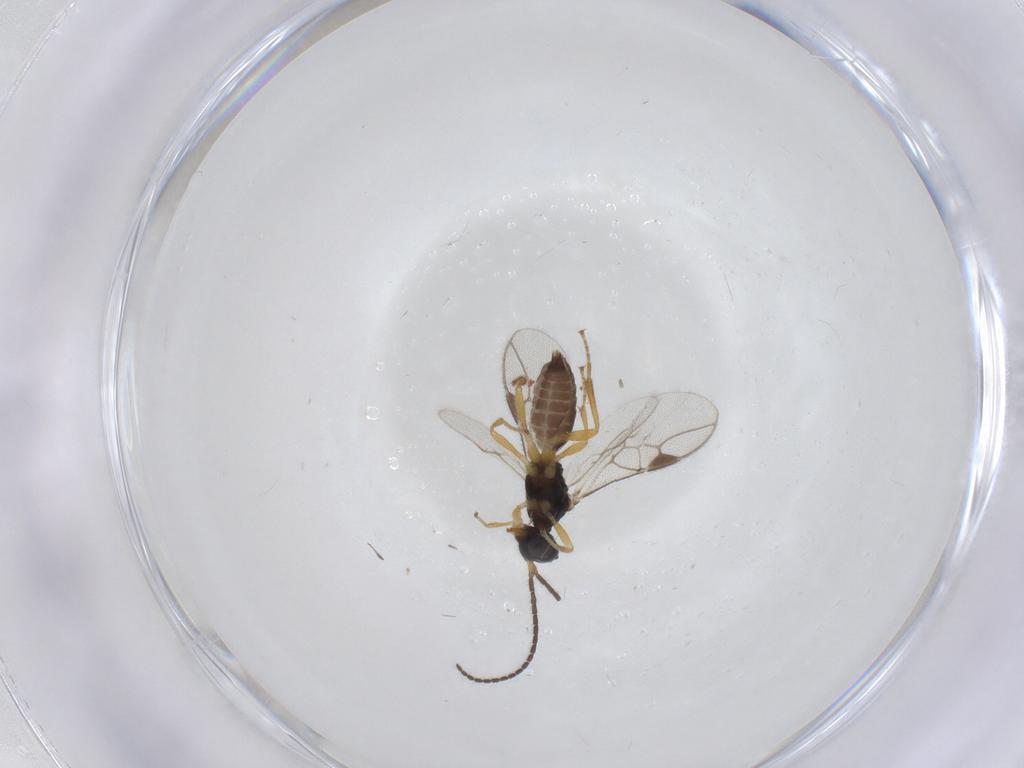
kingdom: Animalia
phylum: Arthropoda
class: Insecta
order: Hymenoptera
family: Braconidae
